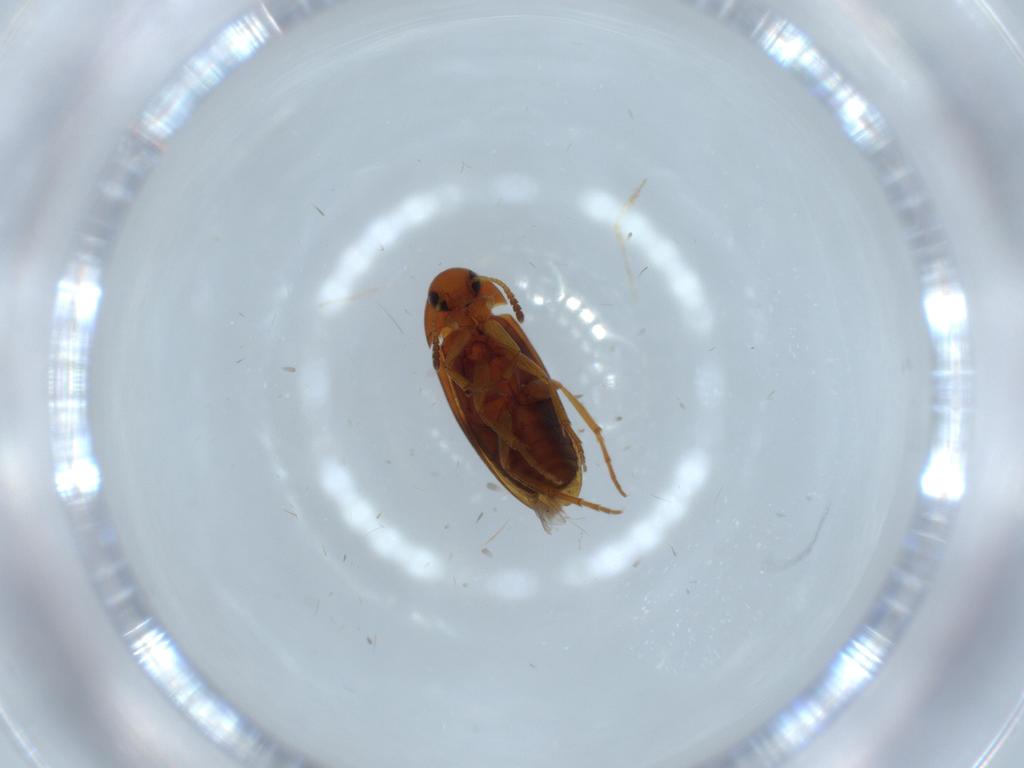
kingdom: Animalia
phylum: Arthropoda
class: Insecta
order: Coleoptera
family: Scraptiidae
